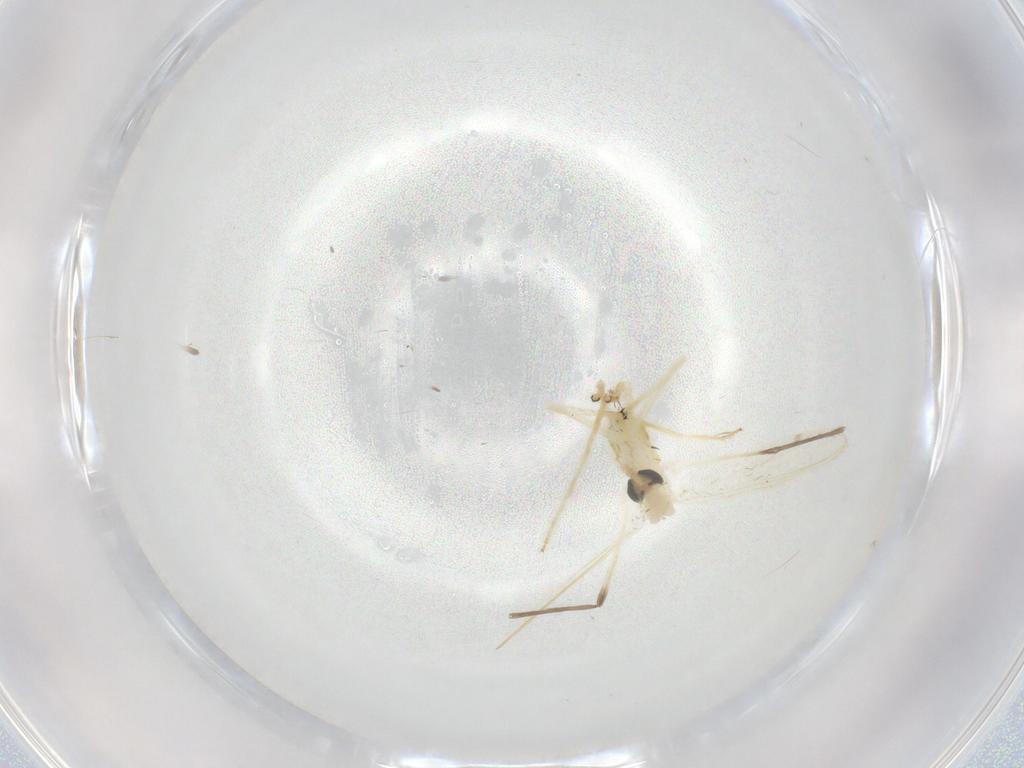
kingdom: Animalia
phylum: Arthropoda
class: Insecta
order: Diptera
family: Chironomidae
